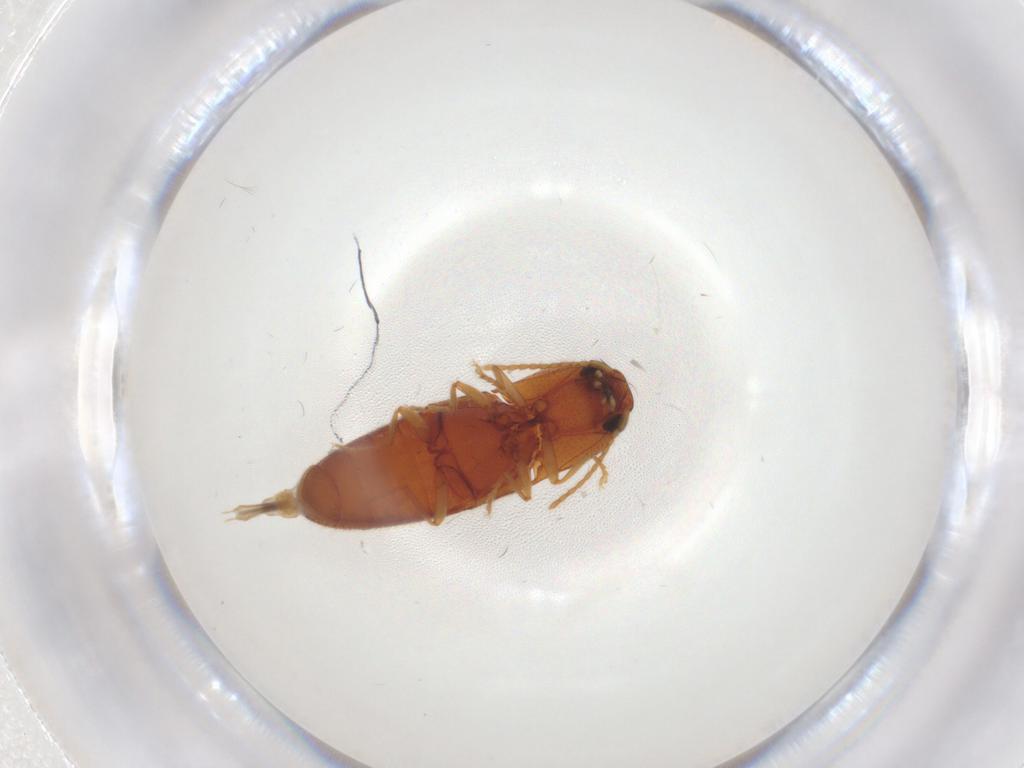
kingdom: Animalia
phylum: Arthropoda
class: Insecta
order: Coleoptera
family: Elateridae
